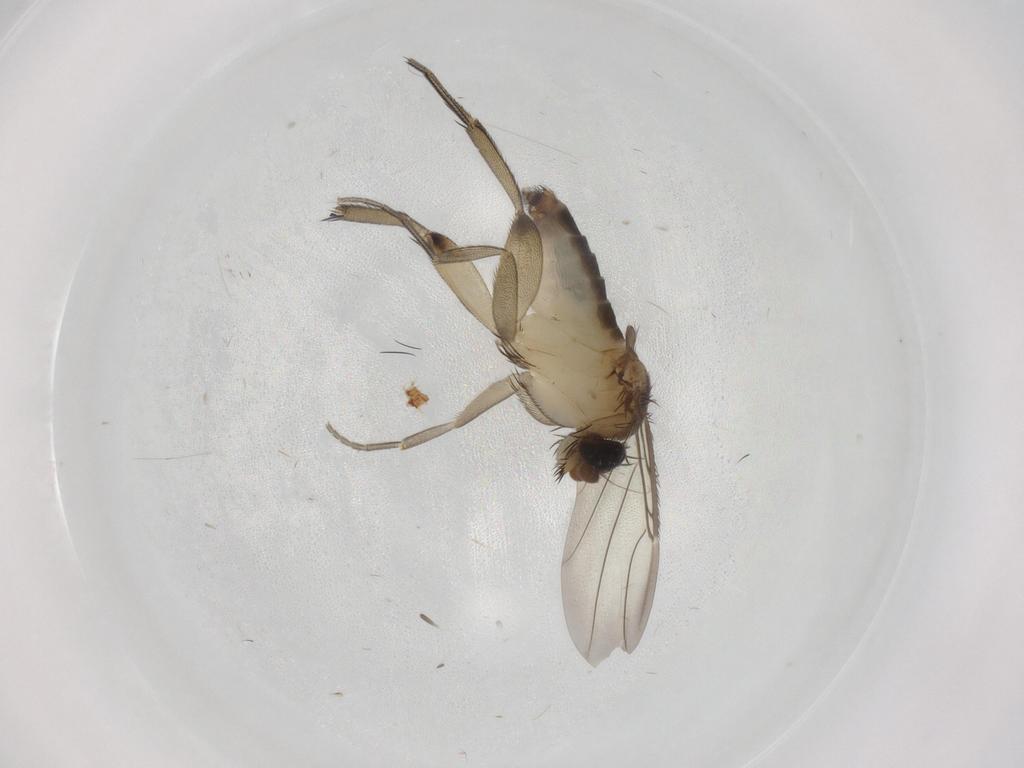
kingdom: Animalia
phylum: Arthropoda
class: Insecta
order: Diptera
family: Phoridae
